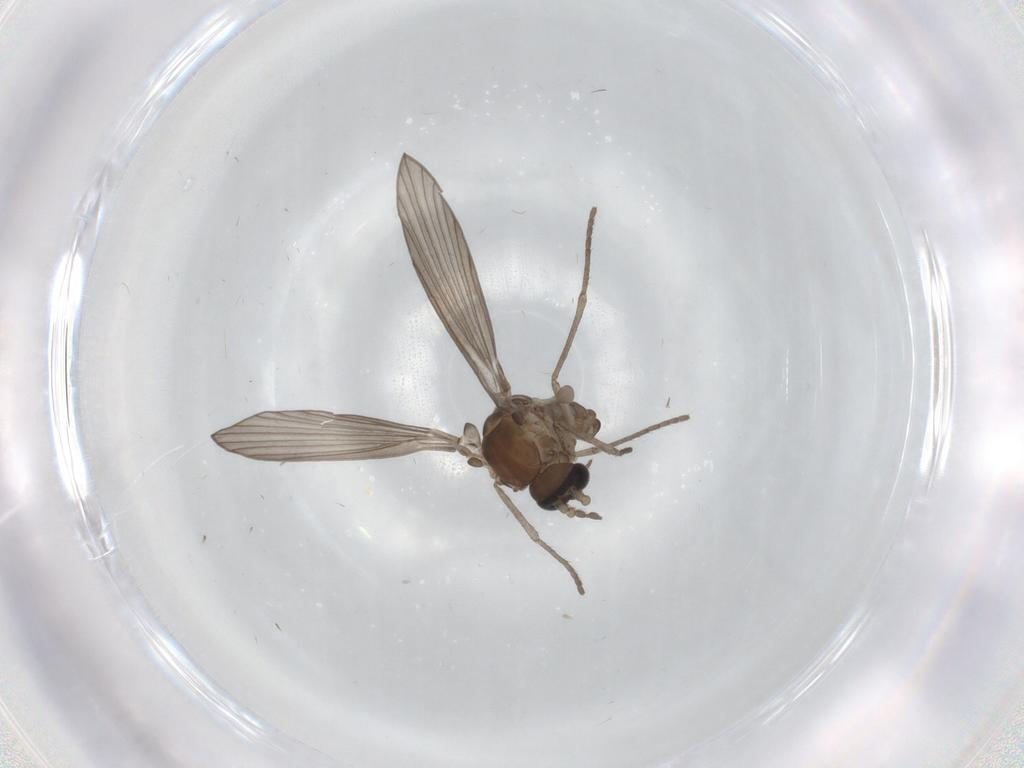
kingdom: Animalia
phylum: Arthropoda
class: Insecta
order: Diptera
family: Psychodidae
